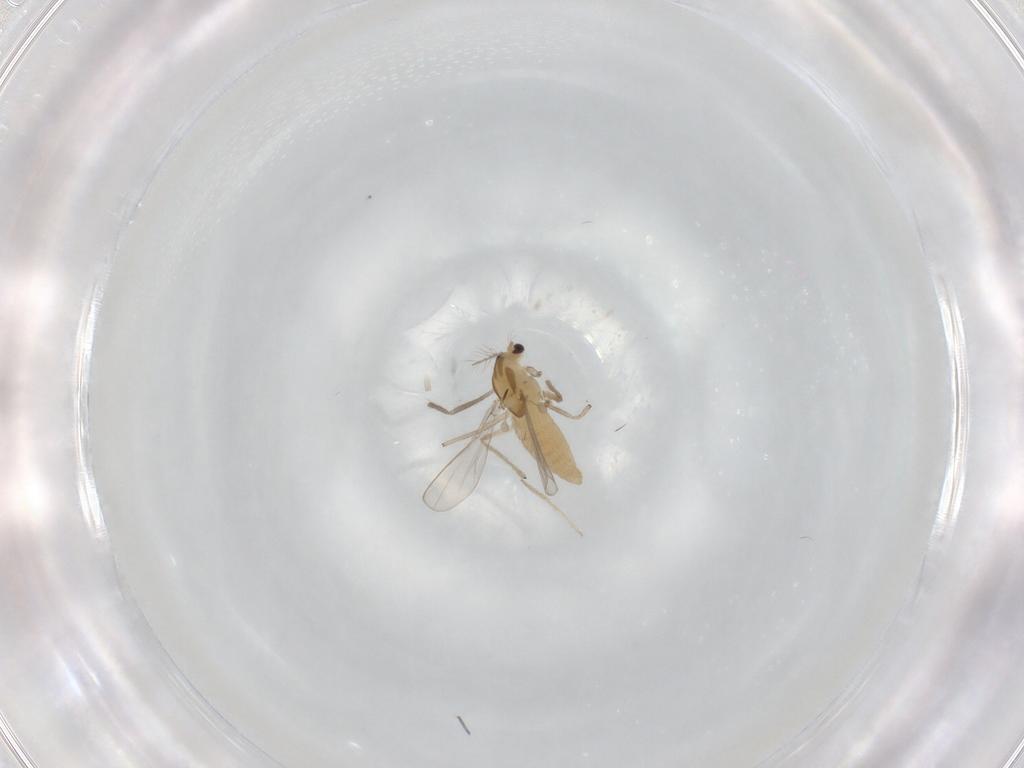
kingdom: Animalia
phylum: Arthropoda
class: Insecta
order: Diptera
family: Chironomidae
